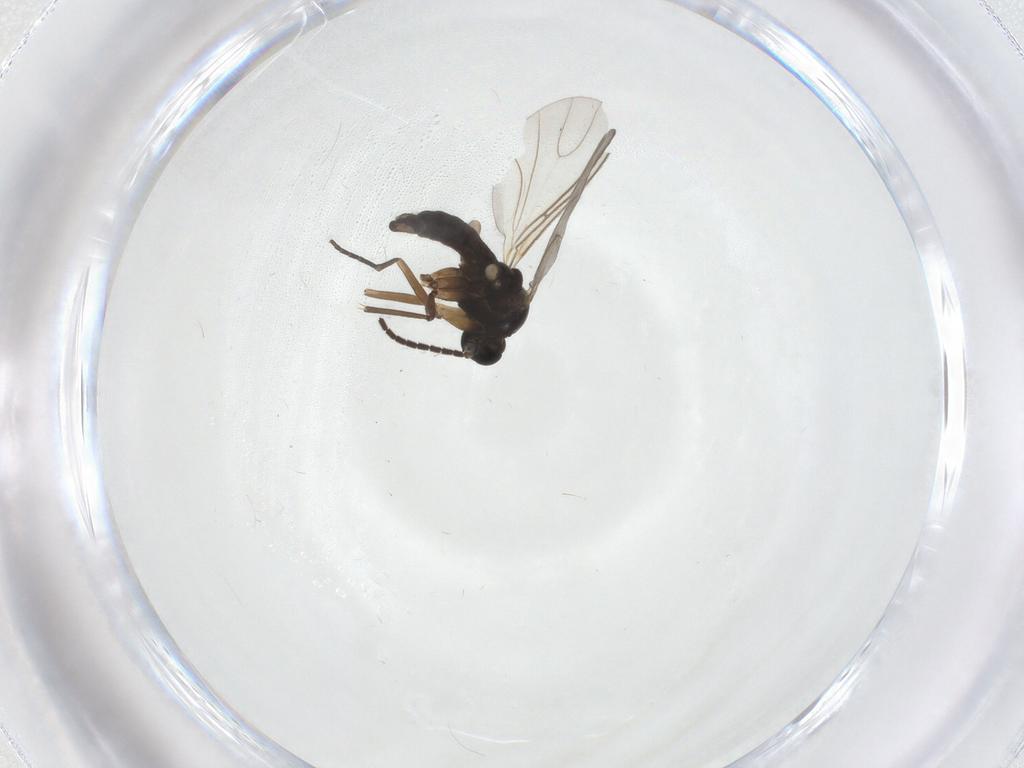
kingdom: Animalia
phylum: Arthropoda
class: Insecta
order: Diptera
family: Sciaridae
